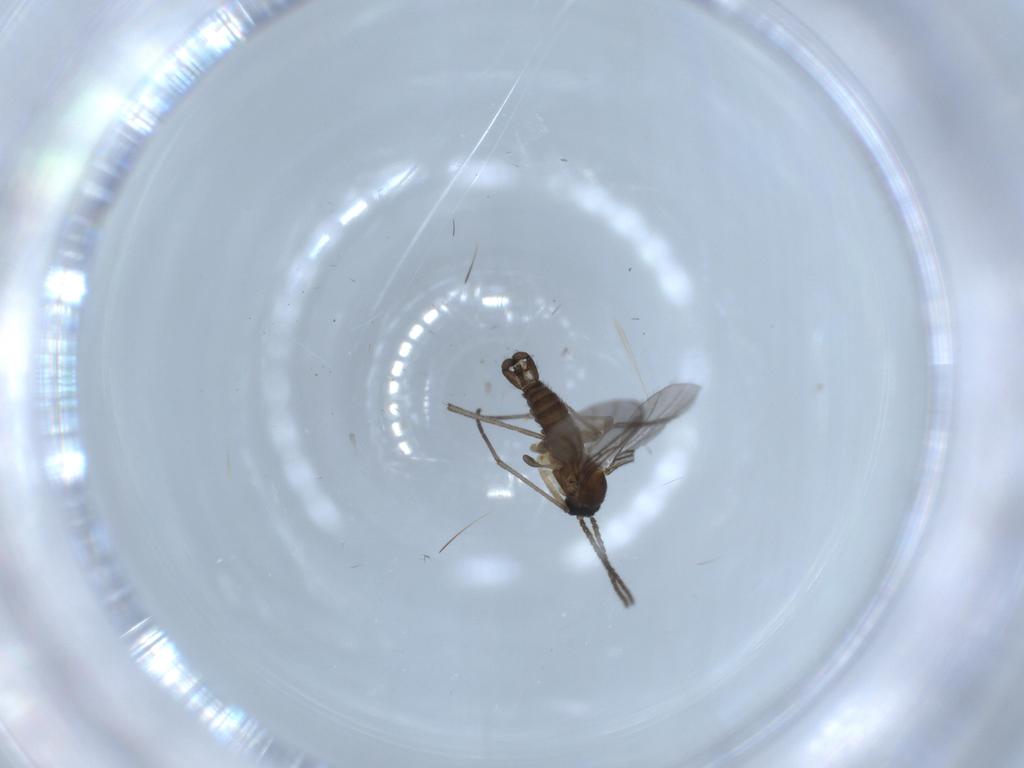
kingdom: Animalia
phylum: Arthropoda
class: Insecta
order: Diptera
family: Sciaridae
